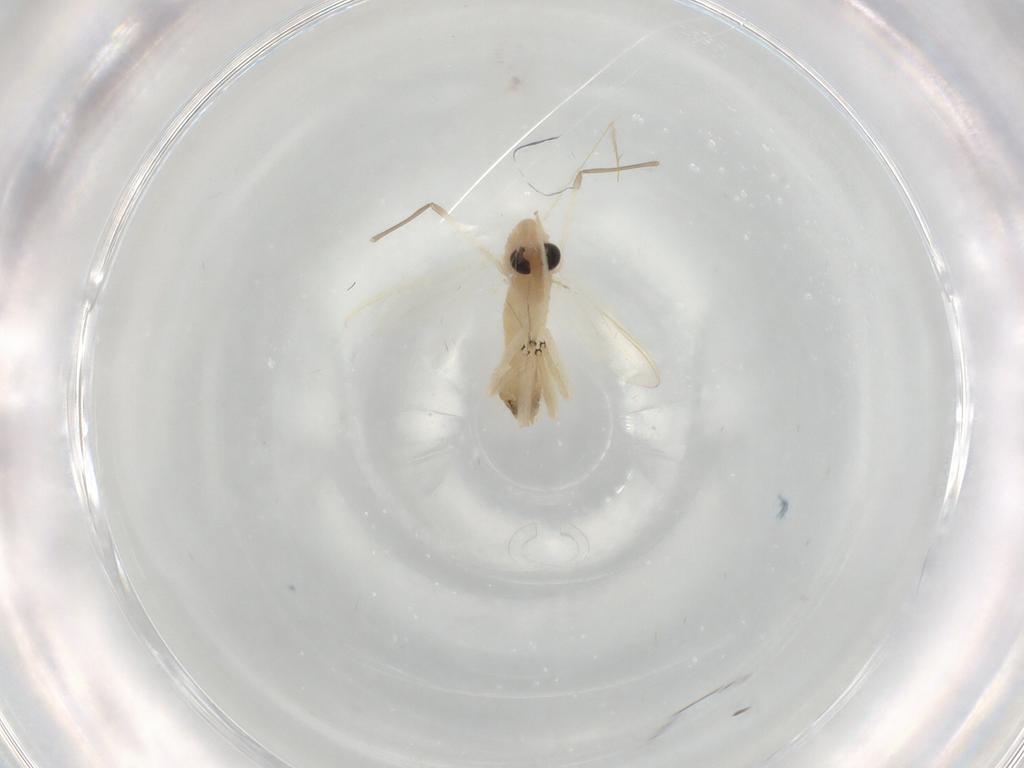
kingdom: Animalia
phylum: Arthropoda
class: Insecta
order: Diptera
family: Chironomidae
